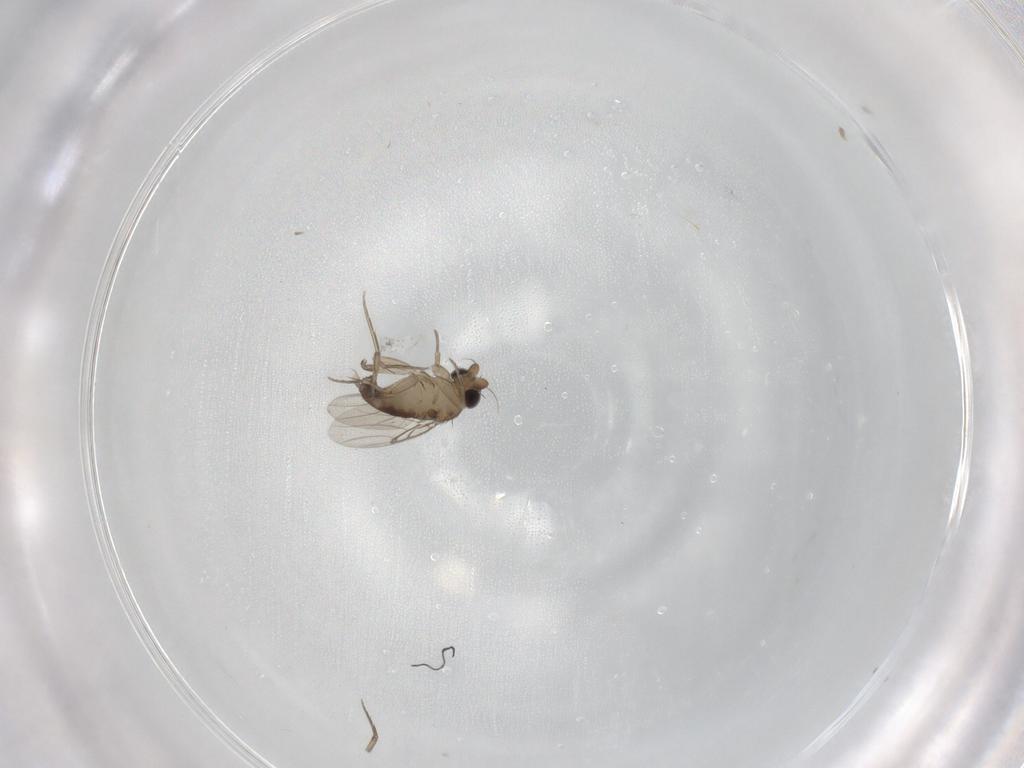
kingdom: Animalia
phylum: Arthropoda
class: Insecta
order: Diptera
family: Phoridae
